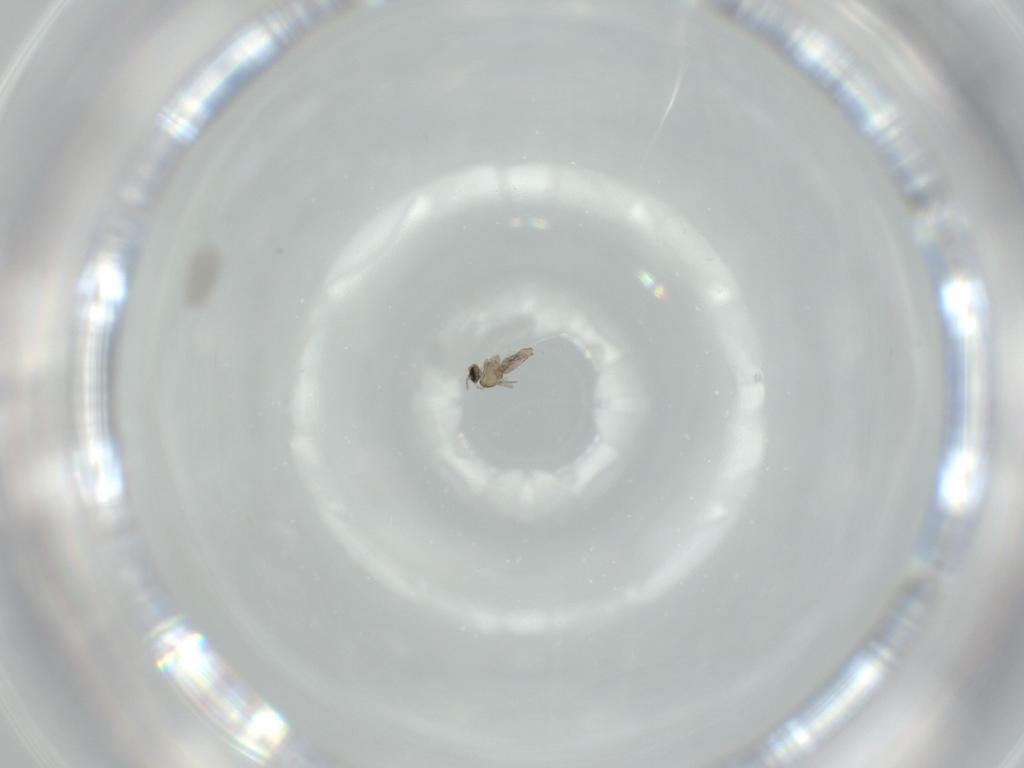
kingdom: Animalia
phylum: Arthropoda
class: Insecta
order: Diptera
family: Cecidomyiidae
